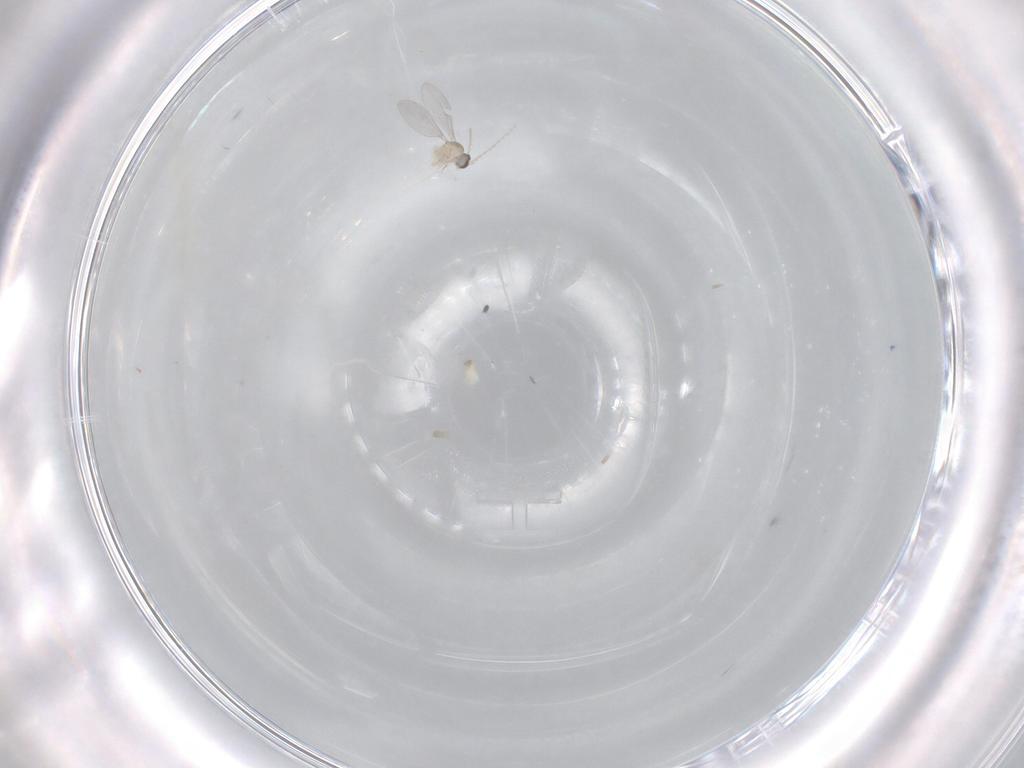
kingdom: Animalia
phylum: Arthropoda
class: Insecta
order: Diptera
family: Cecidomyiidae
